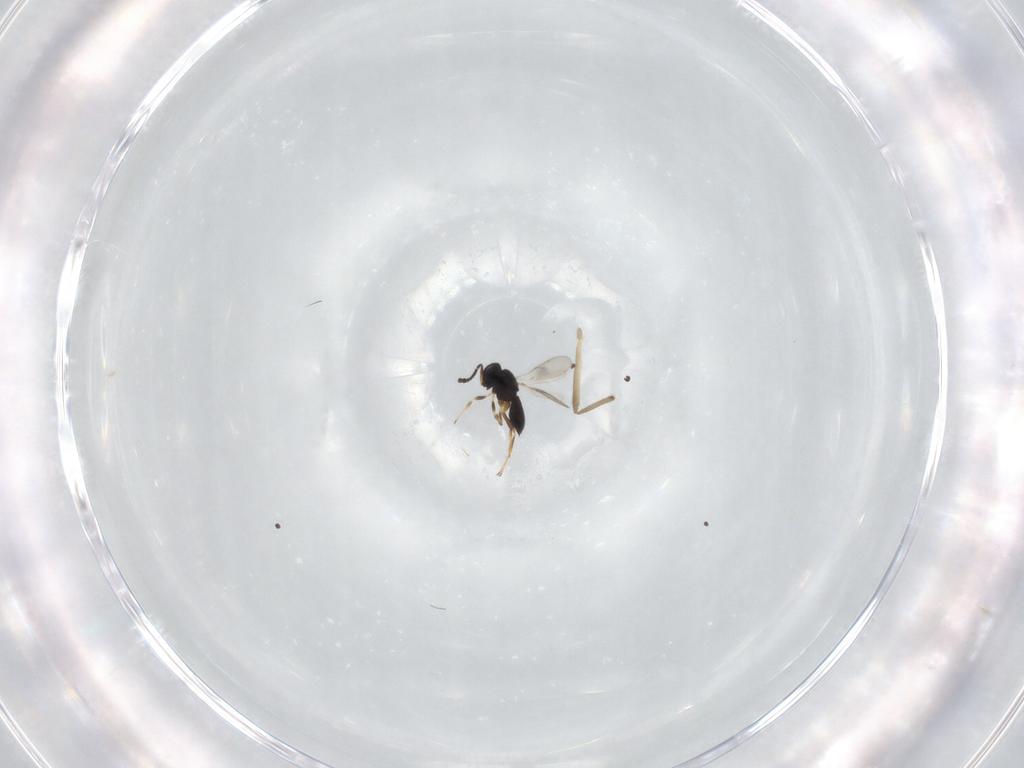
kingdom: Animalia
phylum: Arthropoda
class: Insecta
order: Hymenoptera
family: Scelionidae
